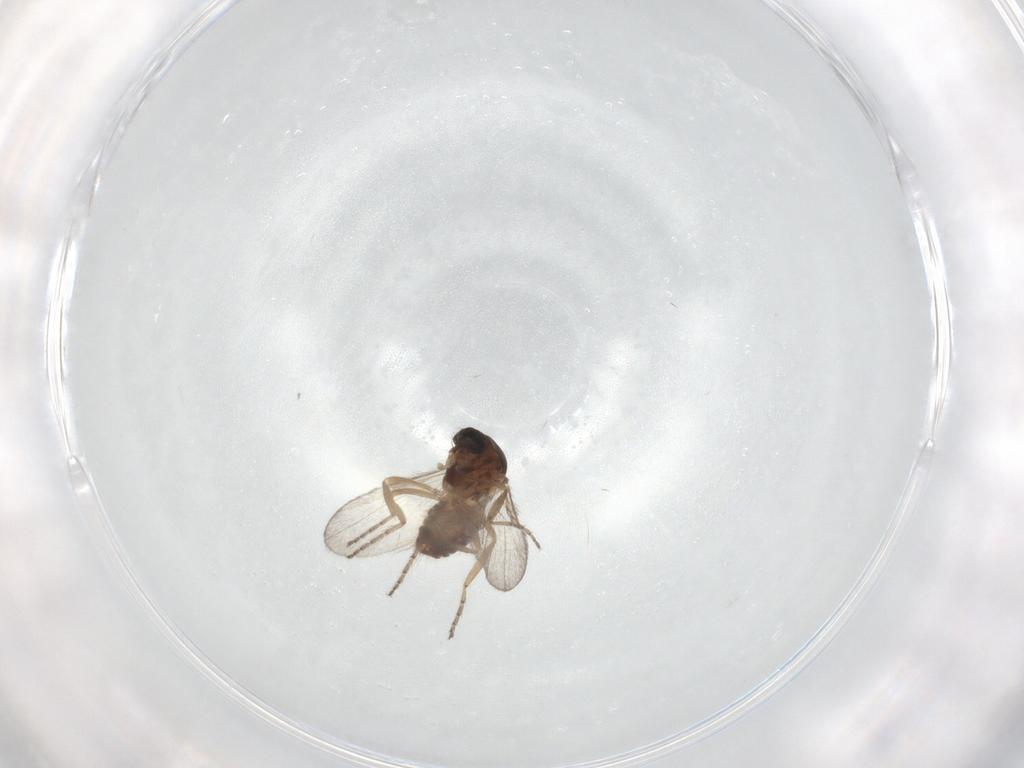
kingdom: Animalia
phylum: Arthropoda
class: Insecta
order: Diptera
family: Ceratopogonidae
